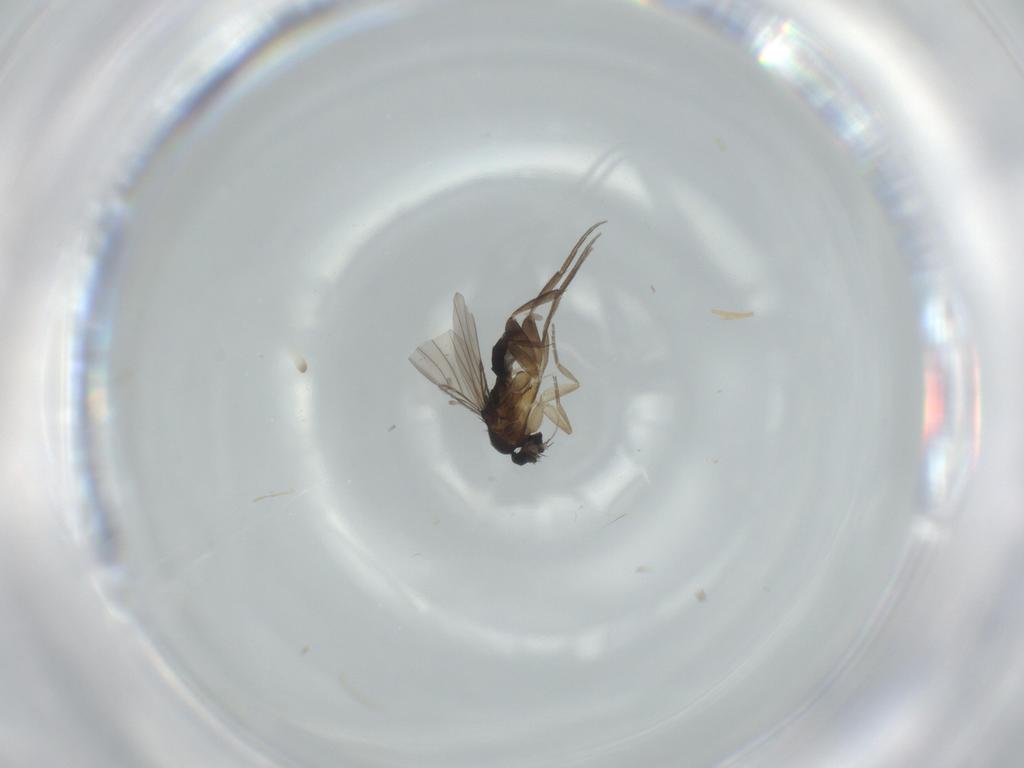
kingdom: Animalia
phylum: Arthropoda
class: Insecta
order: Diptera
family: Phoridae
